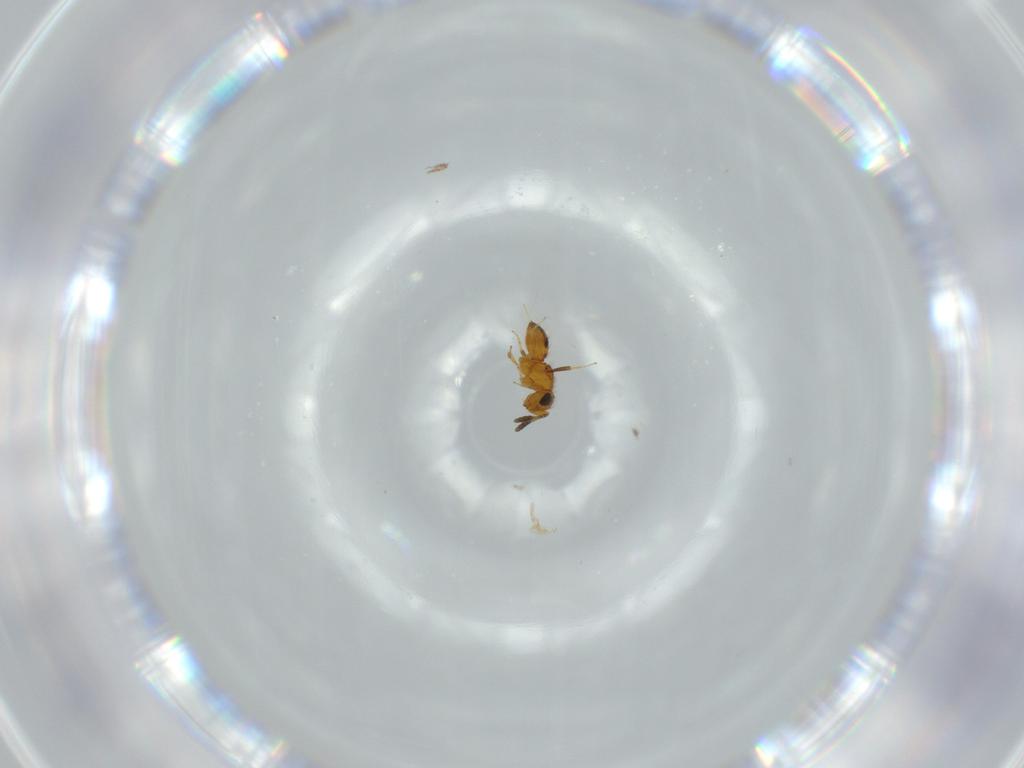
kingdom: Animalia
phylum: Arthropoda
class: Insecta
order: Hymenoptera
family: Scelionidae
